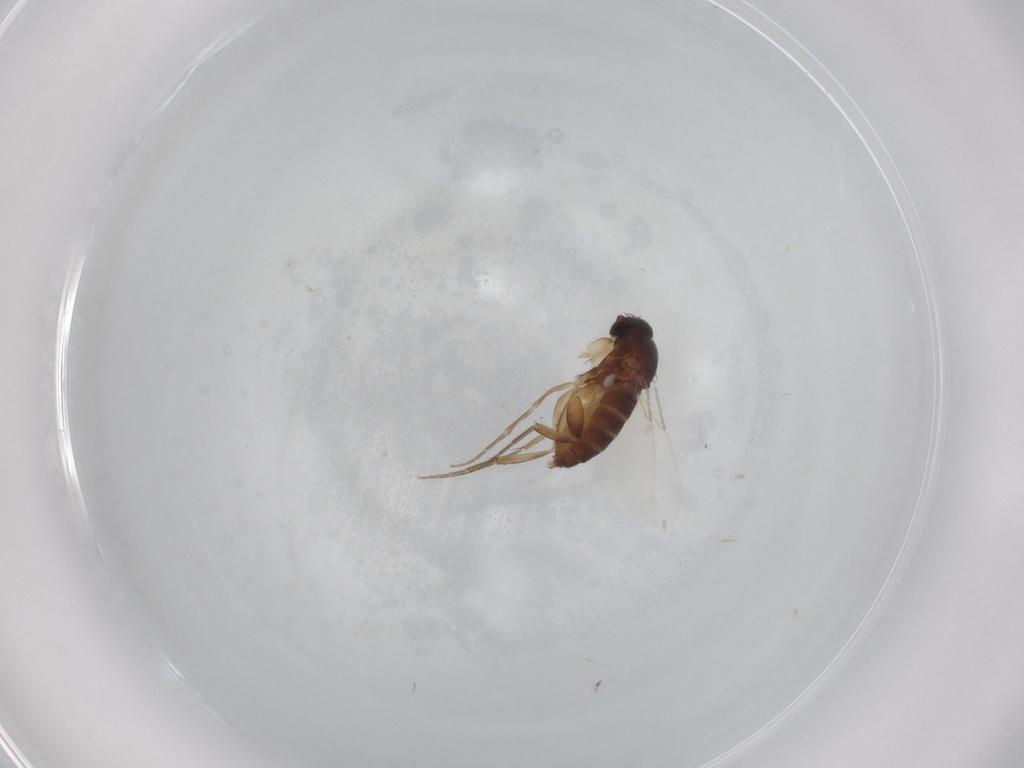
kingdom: Animalia
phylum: Arthropoda
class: Insecta
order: Diptera
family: Phoridae
